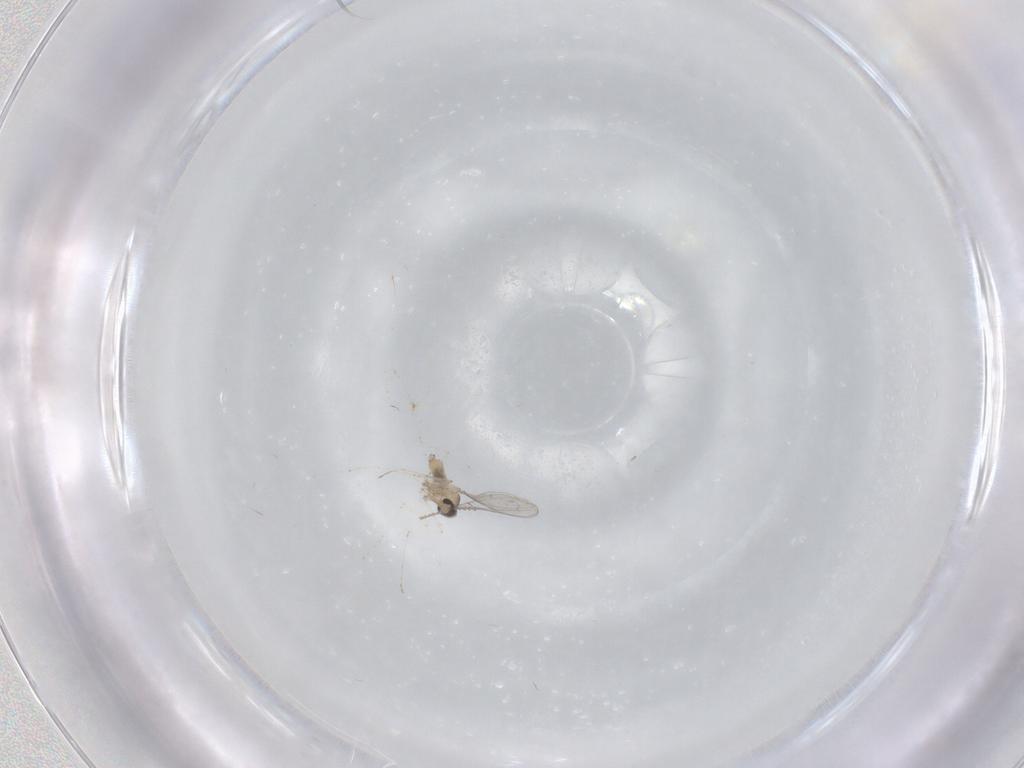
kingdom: Animalia
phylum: Arthropoda
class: Insecta
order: Diptera
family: Cecidomyiidae
